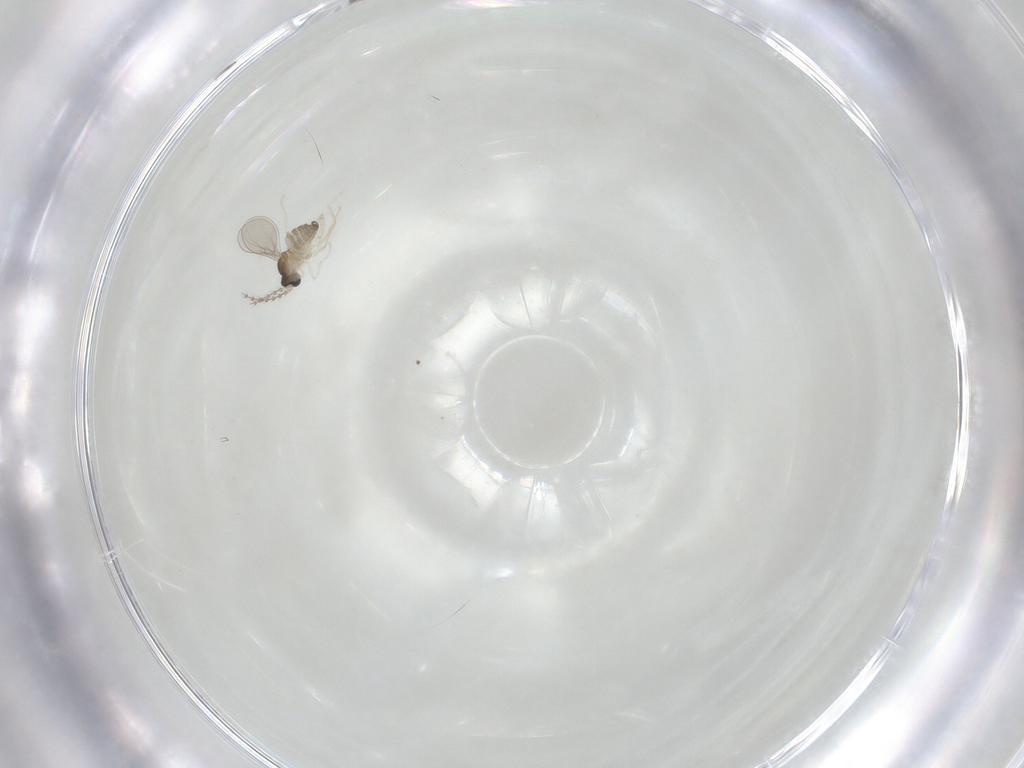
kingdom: Animalia
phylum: Arthropoda
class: Insecta
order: Diptera
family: Cecidomyiidae
